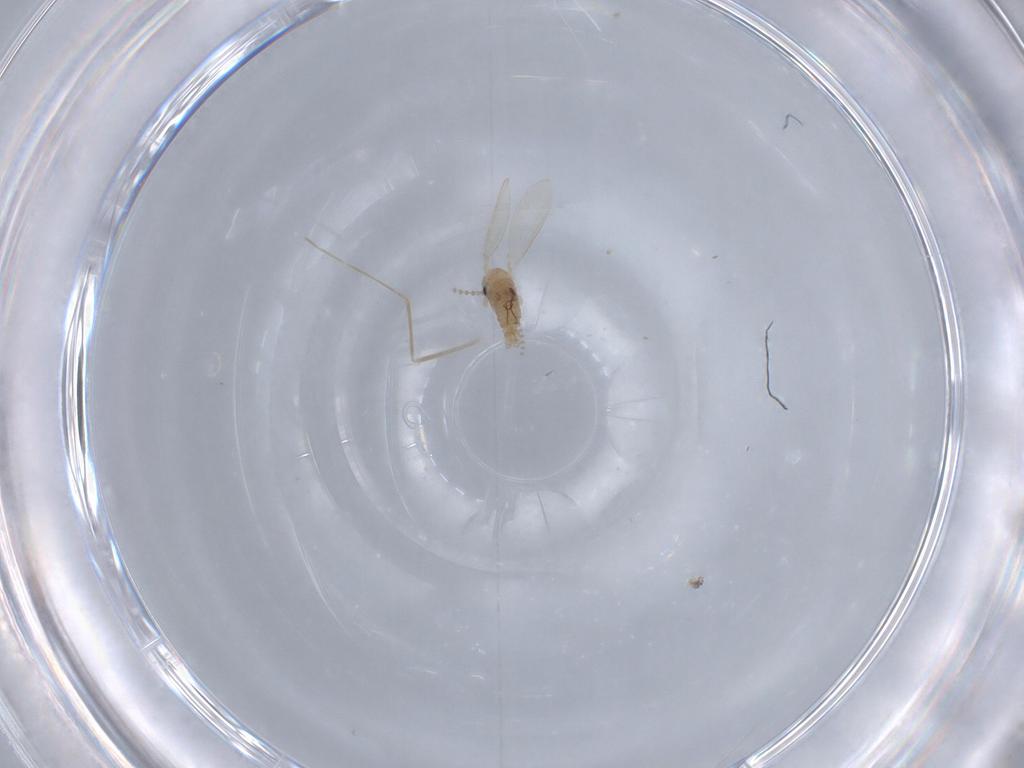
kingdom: Animalia
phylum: Arthropoda
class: Insecta
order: Diptera
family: Psychodidae
